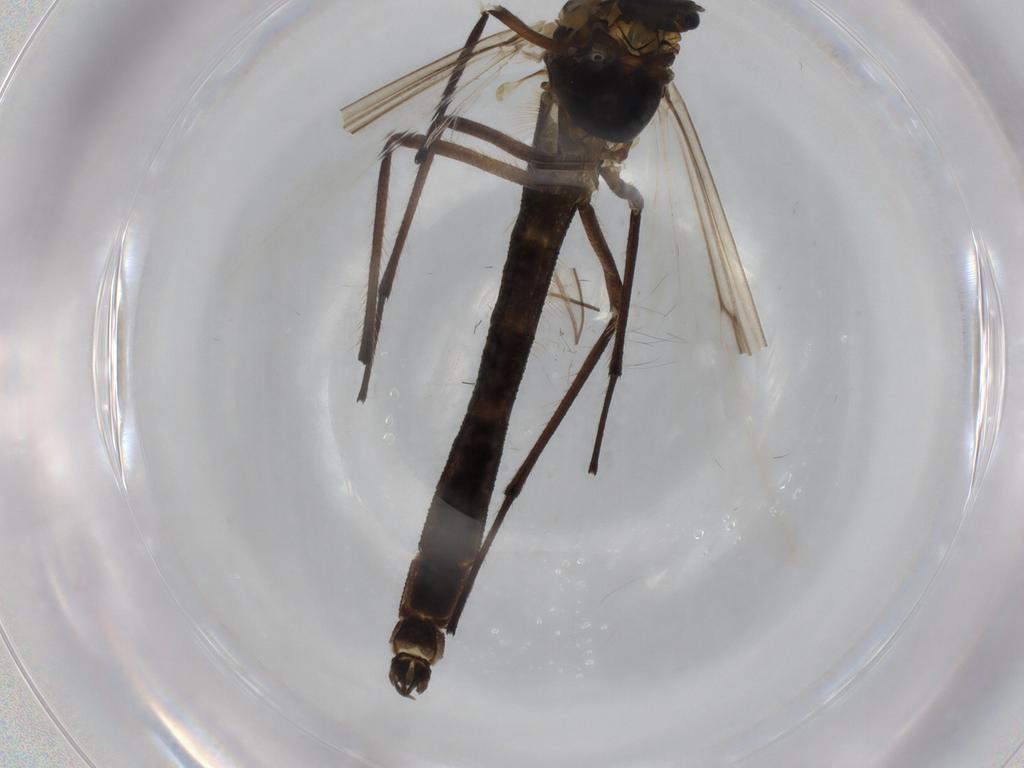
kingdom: Animalia
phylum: Arthropoda
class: Insecta
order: Diptera
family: Chironomidae
